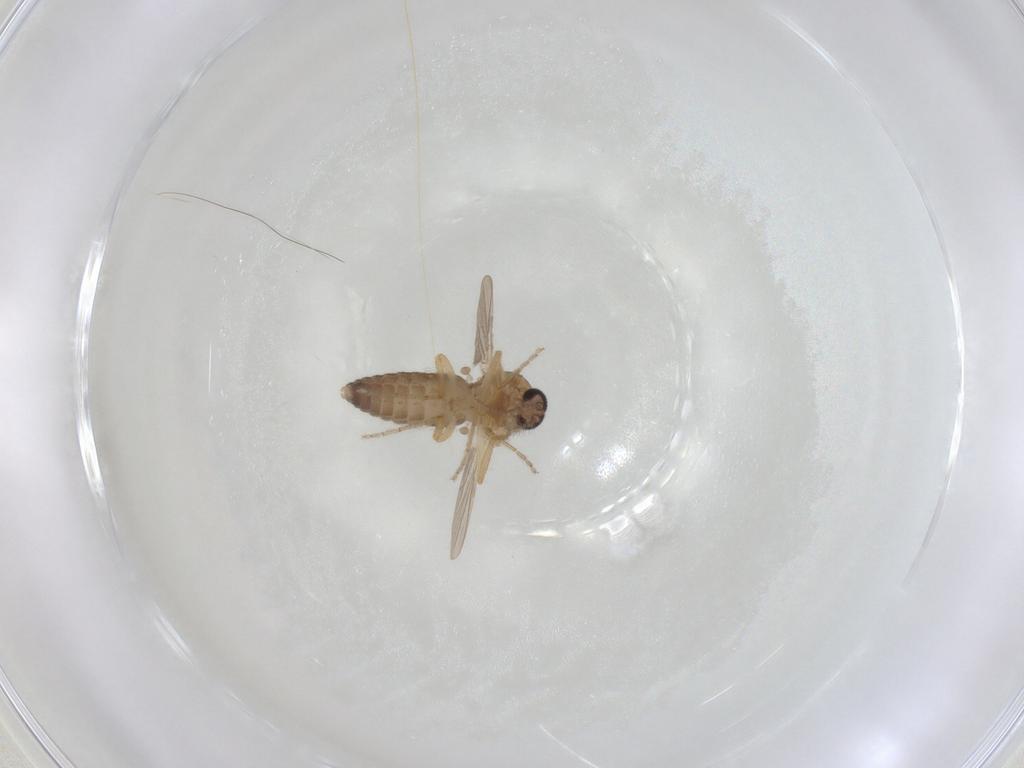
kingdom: Animalia
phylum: Arthropoda
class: Insecta
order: Diptera
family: Ceratopogonidae
